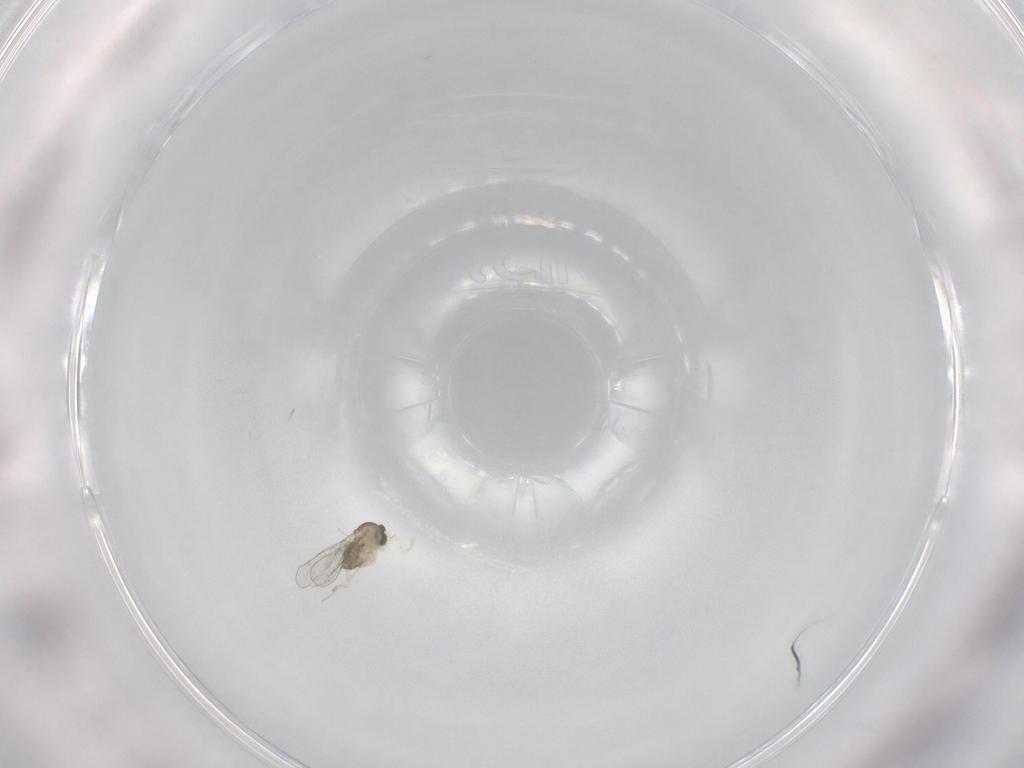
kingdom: Animalia
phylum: Arthropoda
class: Insecta
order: Diptera
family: Cecidomyiidae
